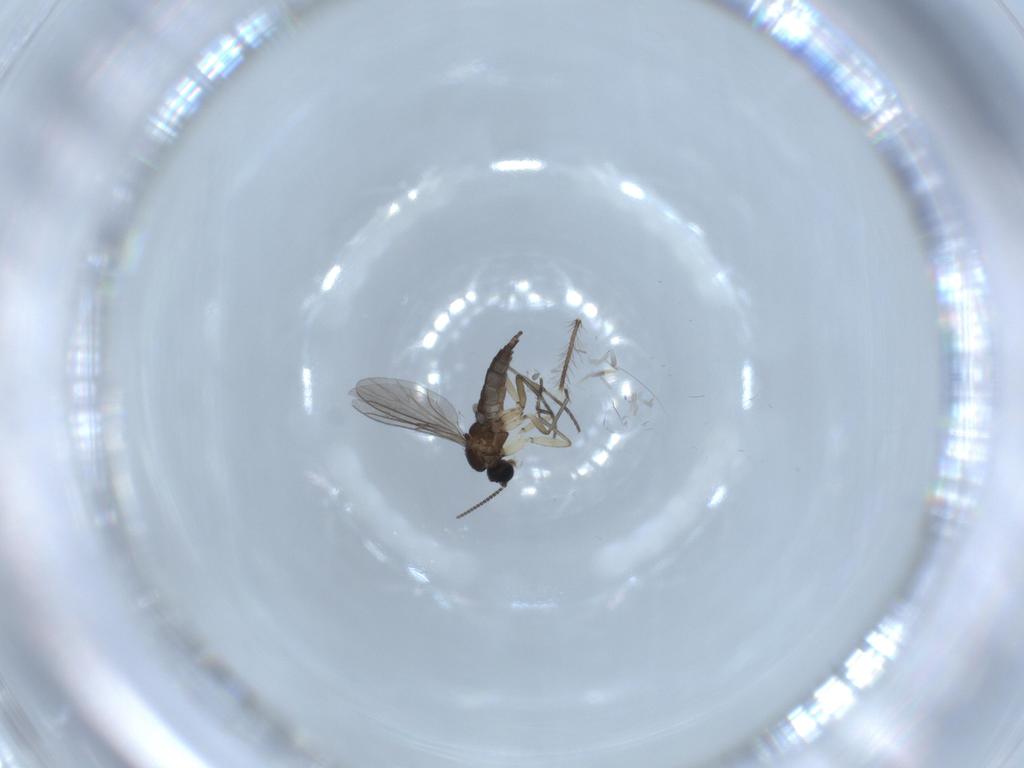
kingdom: Animalia
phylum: Arthropoda
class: Insecta
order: Diptera
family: Sciaridae
